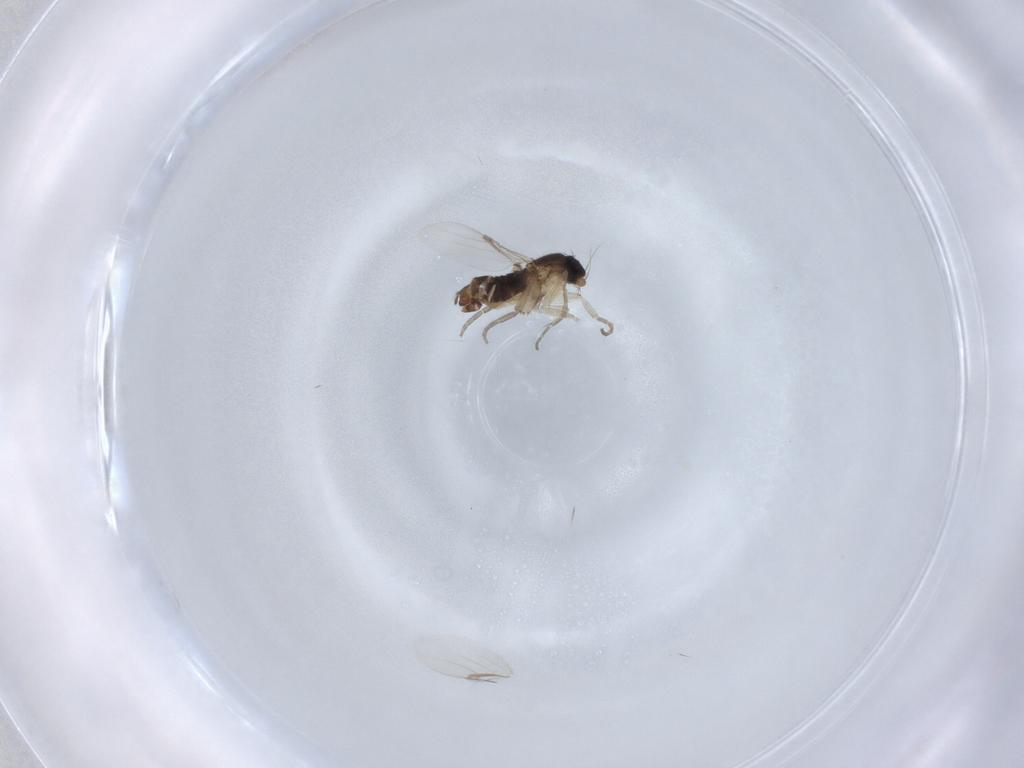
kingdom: Animalia
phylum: Arthropoda
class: Insecta
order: Diptera
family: Phoridae
